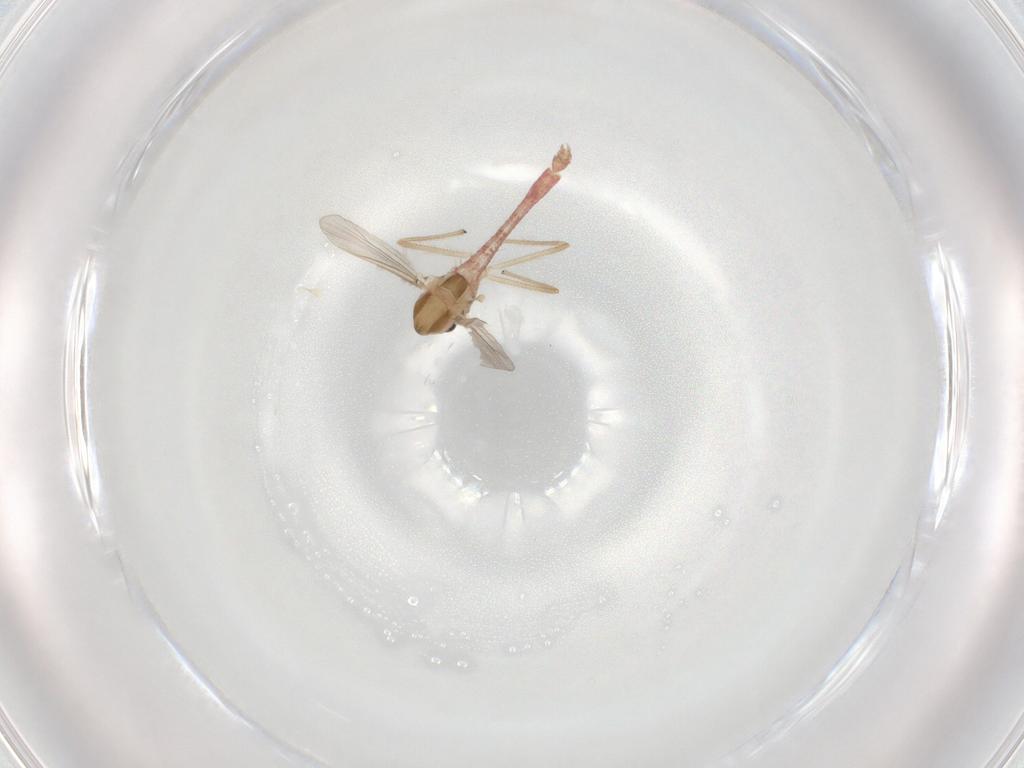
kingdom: Animalia
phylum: Arthropoda
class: Insecta
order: Diptera
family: Chironomidae
